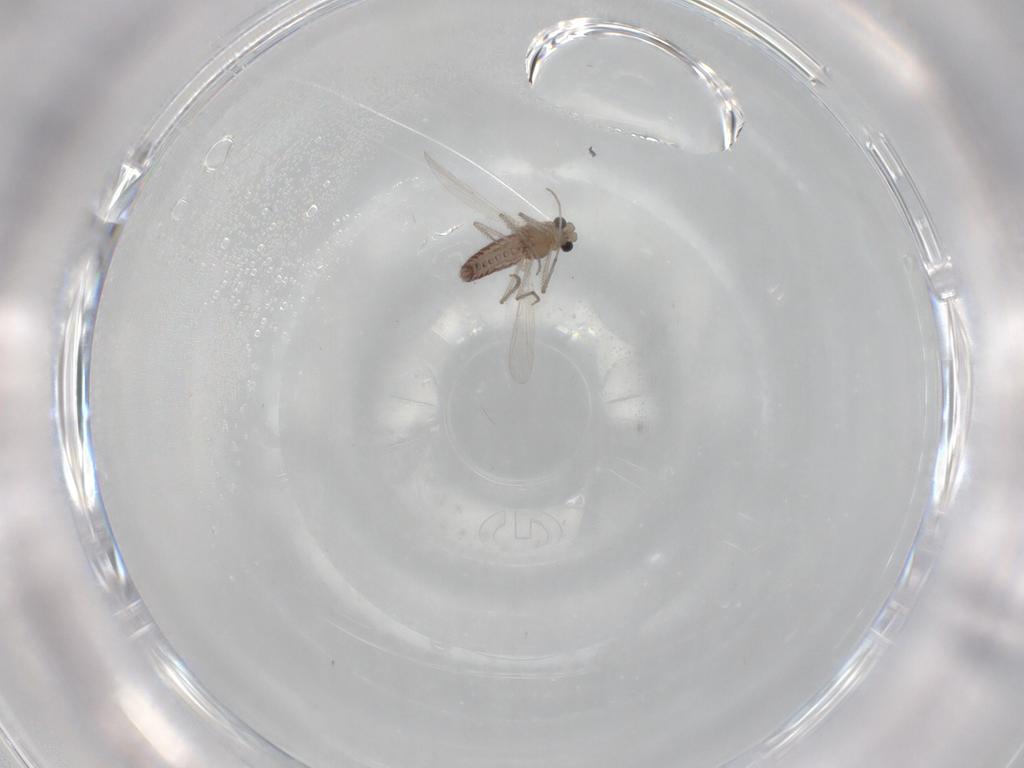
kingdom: Animalia
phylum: Arthropoda
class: Insecta
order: Diptera
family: Chironomidae
